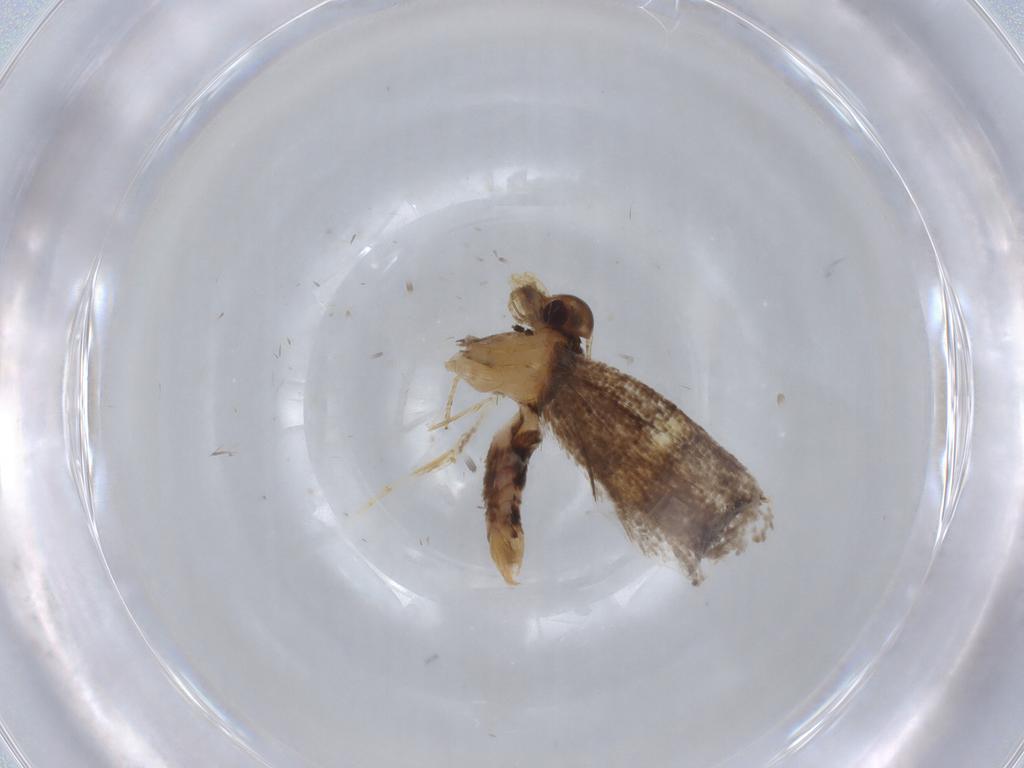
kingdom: Animalia
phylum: Arthropoda
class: Insecta
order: Lepidoptera
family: Oecophoridae
